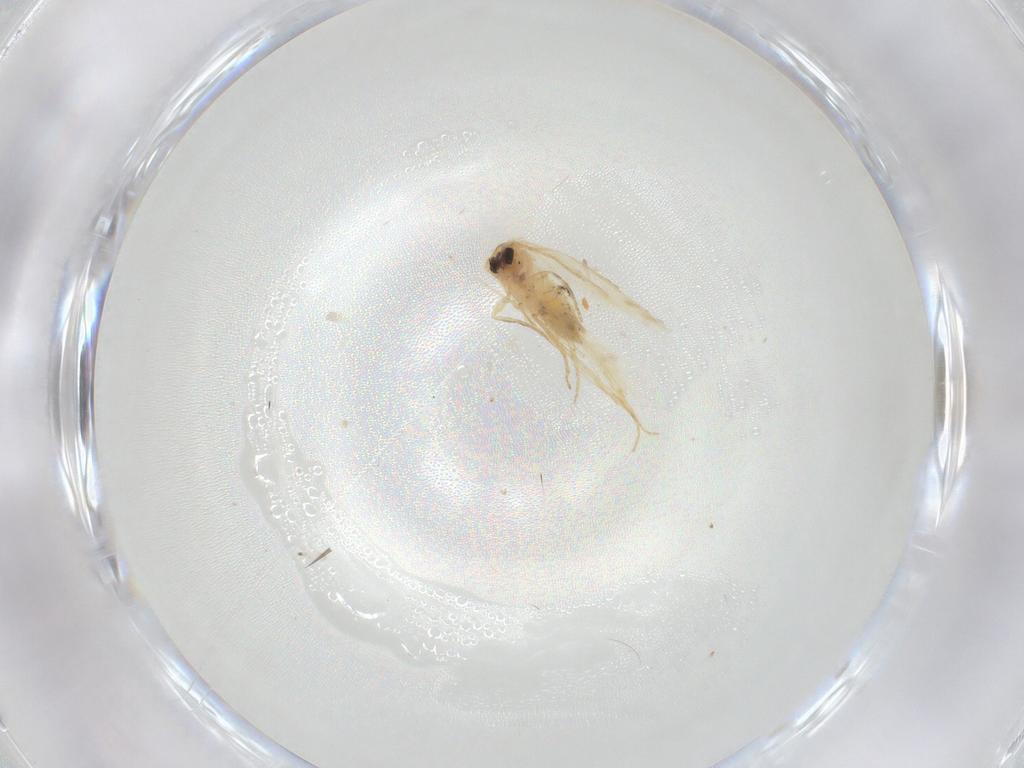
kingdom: Animalia
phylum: Arthropoda
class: Insecta
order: Lepidoptera
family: Nepticulidae
